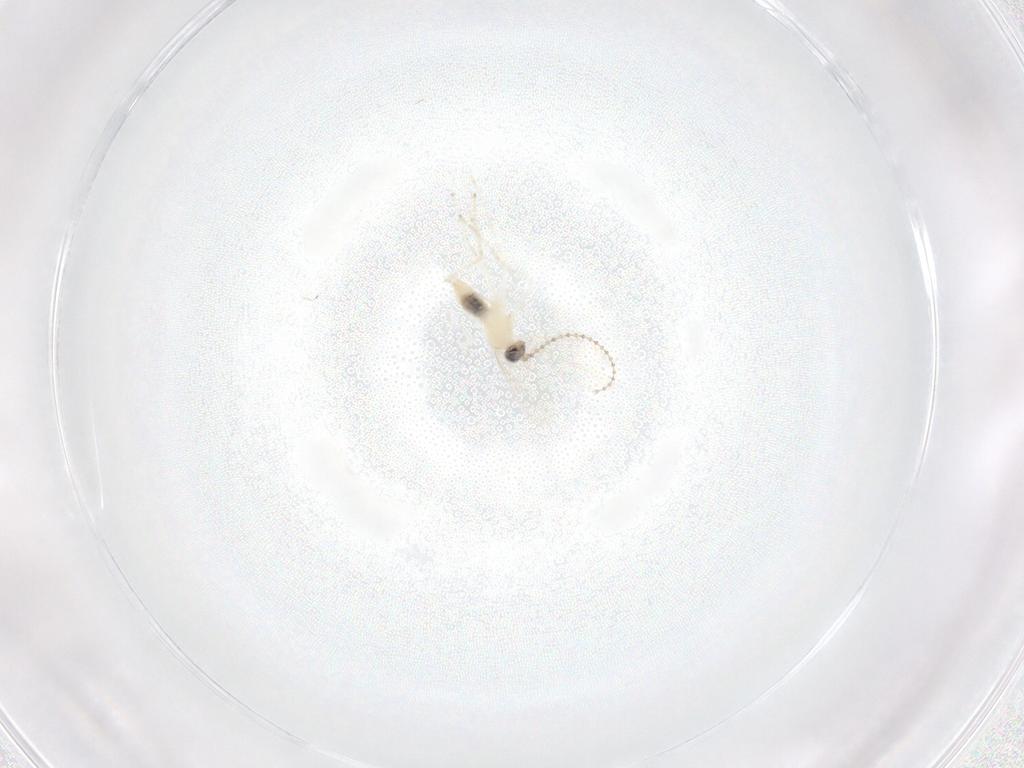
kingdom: Animalia
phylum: Arthropoda
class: Insecta
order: Diptera
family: Cecidomyiidae
